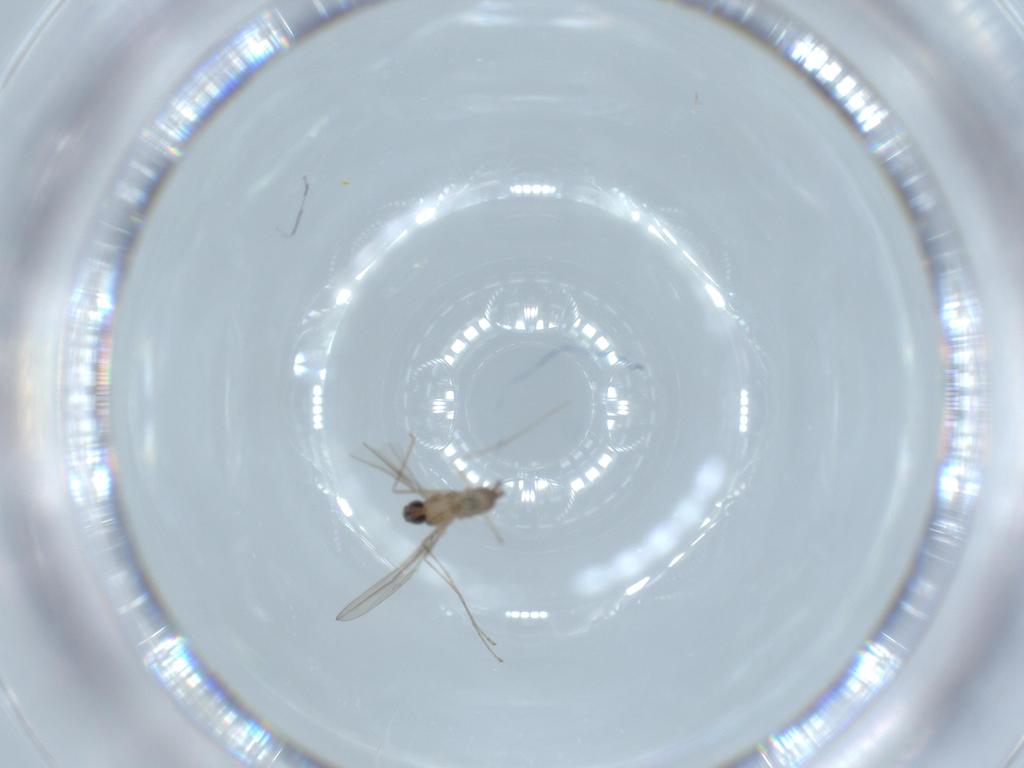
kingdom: Animalia
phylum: Arthropoda
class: Insecta
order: Diptera
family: Cecidomyiidae
